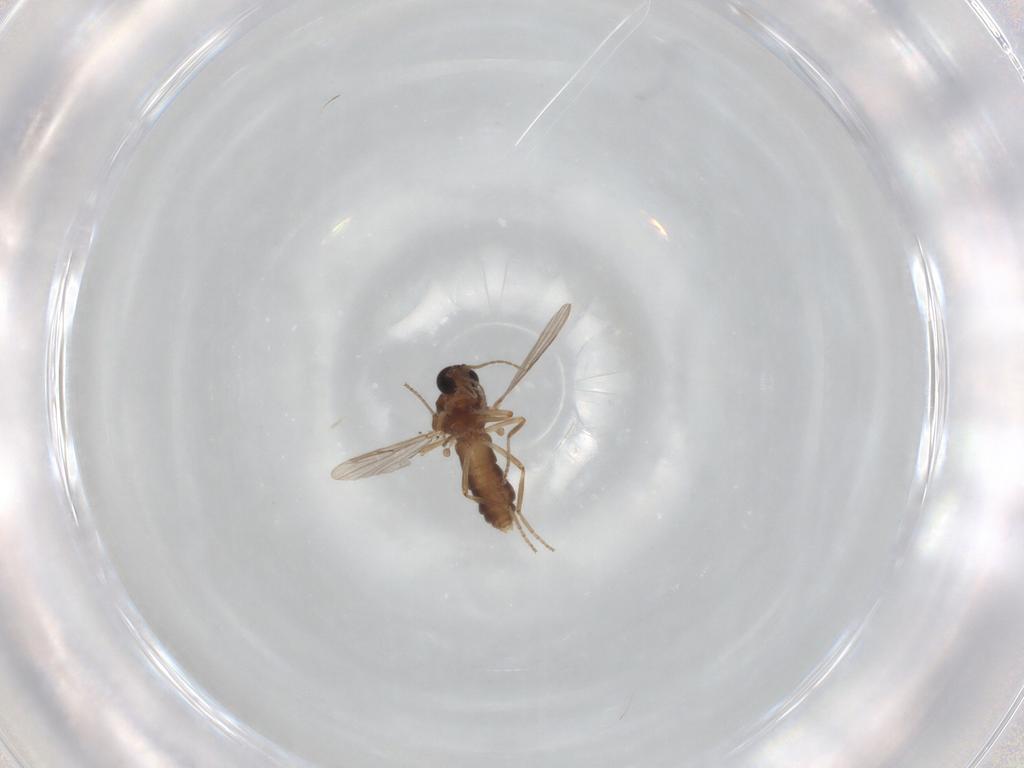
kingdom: Animalia
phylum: Arthropoda
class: Insecta
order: Diptera
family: Ceratopogonidae
